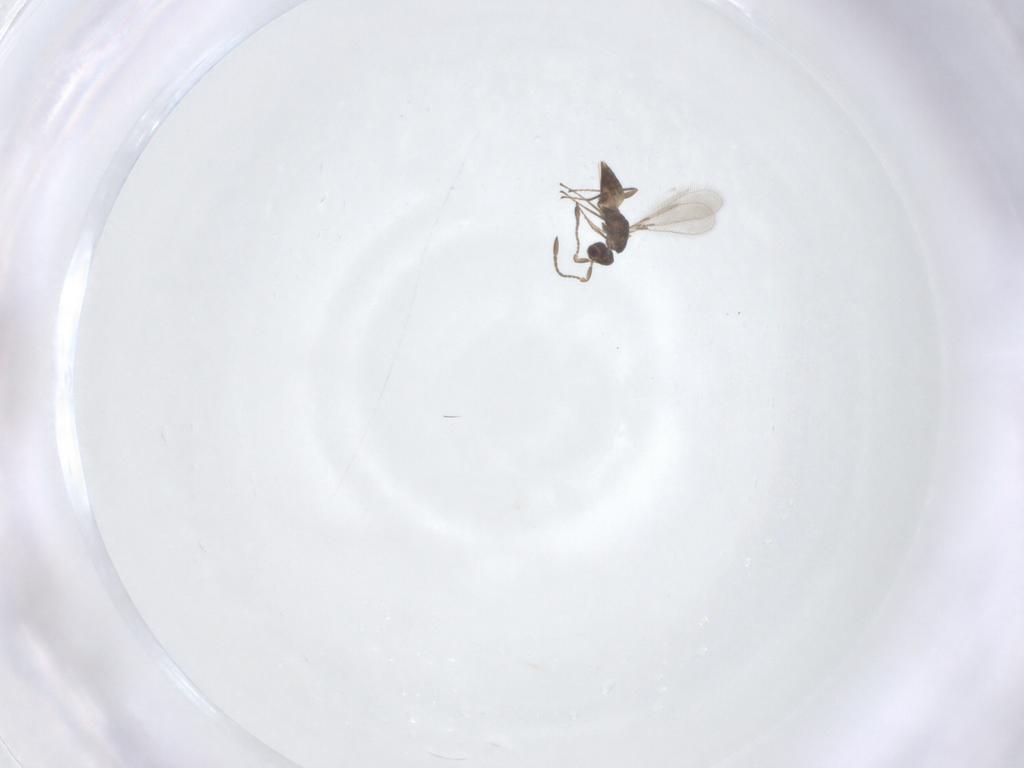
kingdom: Animalia
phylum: Arthropoda
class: Insecta
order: Hymenoptera
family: Mymaridae
